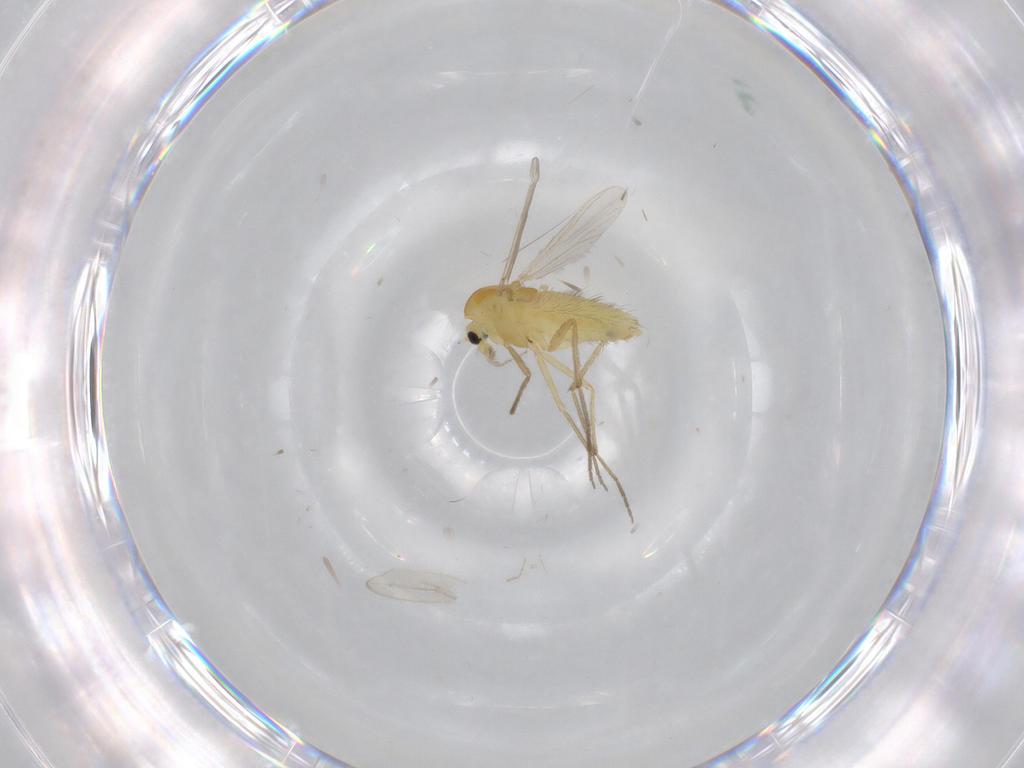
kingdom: Animalia
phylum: Arthropoda
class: Insecta
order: Diptera
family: Chironomidae
